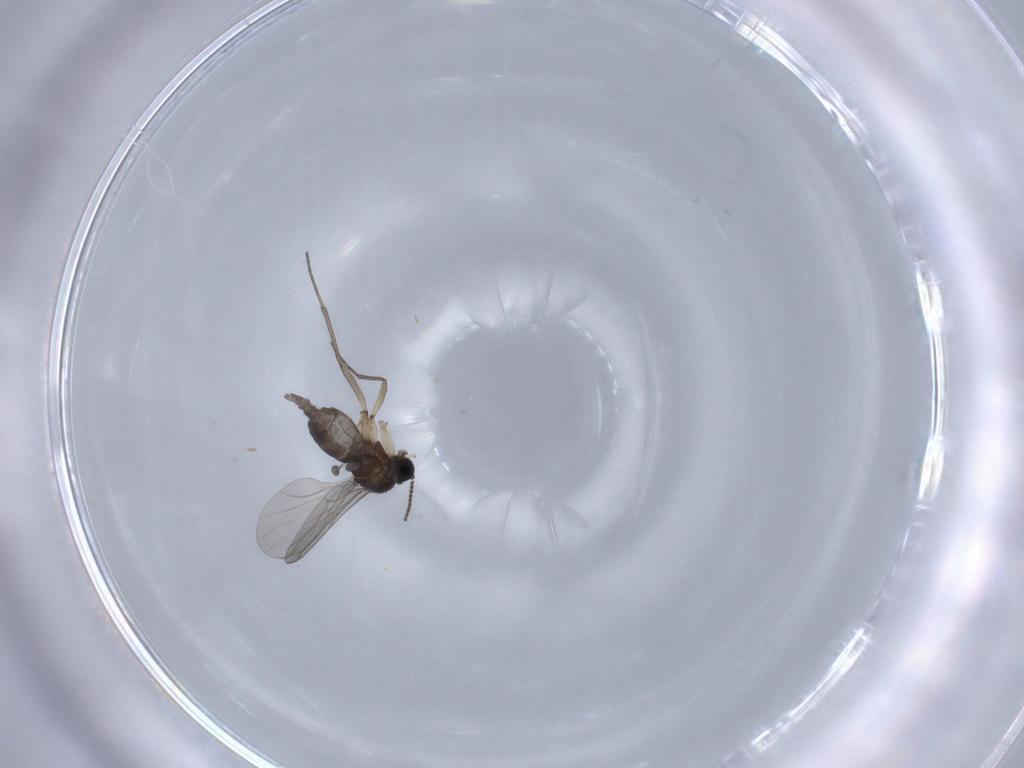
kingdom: Animalia
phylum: Arthropoda
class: Insecta
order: Diptera
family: Sciaridae
